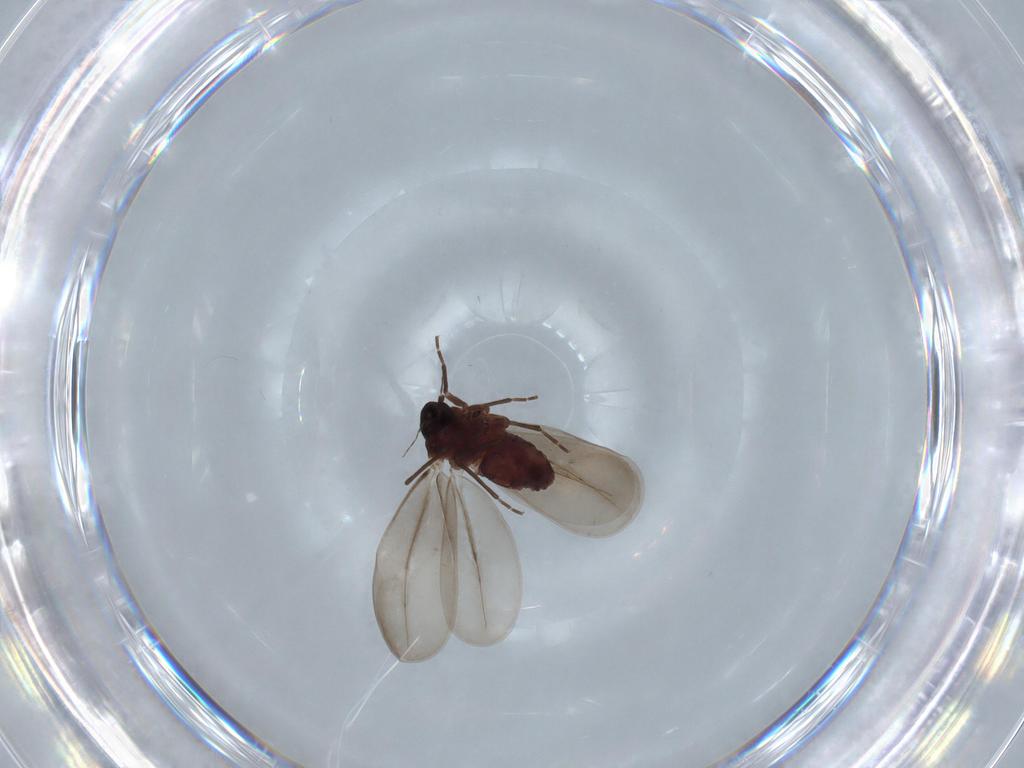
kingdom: Animalia
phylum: Arthropoda
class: Insecta
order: Hemiptera
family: Aleyrodidae
